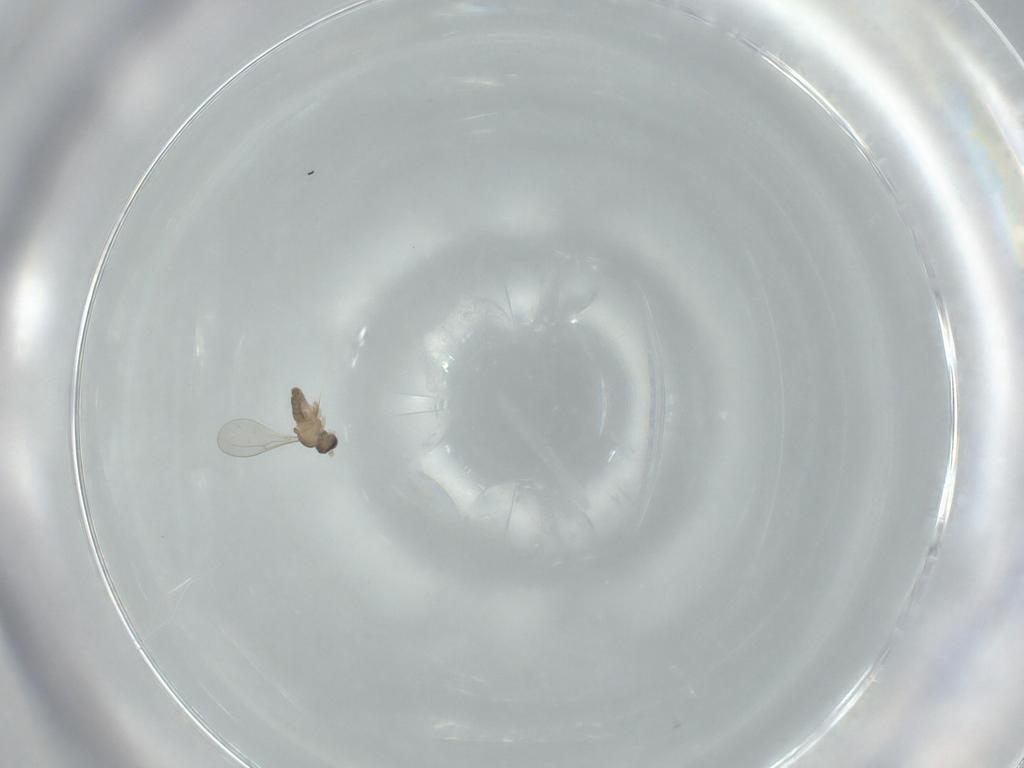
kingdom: Animalia
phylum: Arthropoda
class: Insecta
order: Diptera
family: Cecidomyiidae
